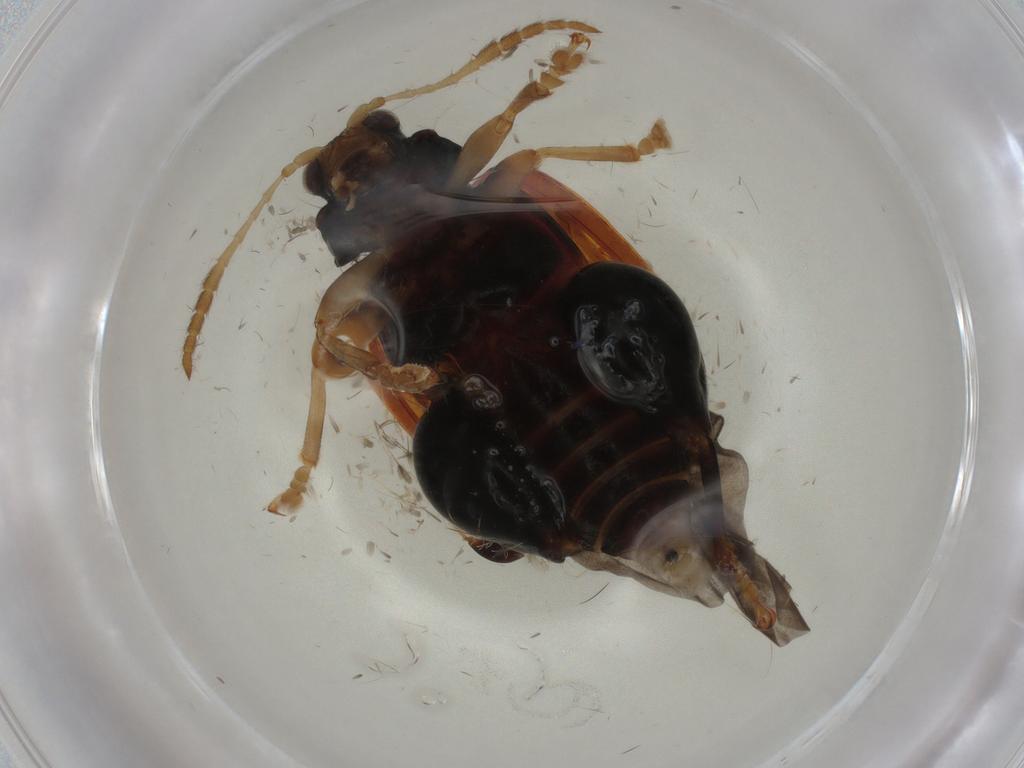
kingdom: Animalia
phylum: Arthropoda
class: Insecta
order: Coleoptera
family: Chrysomelidae
